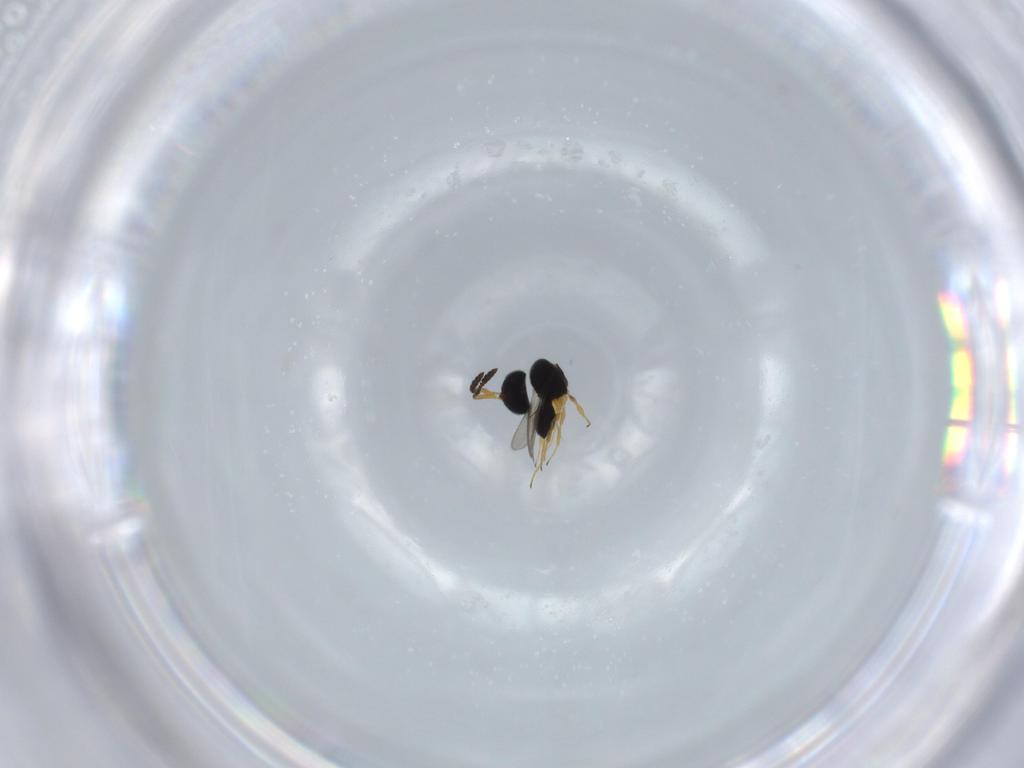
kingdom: Animalia
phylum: Arthropoda
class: Insecta
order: Hymenoptera
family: Scelionidae
